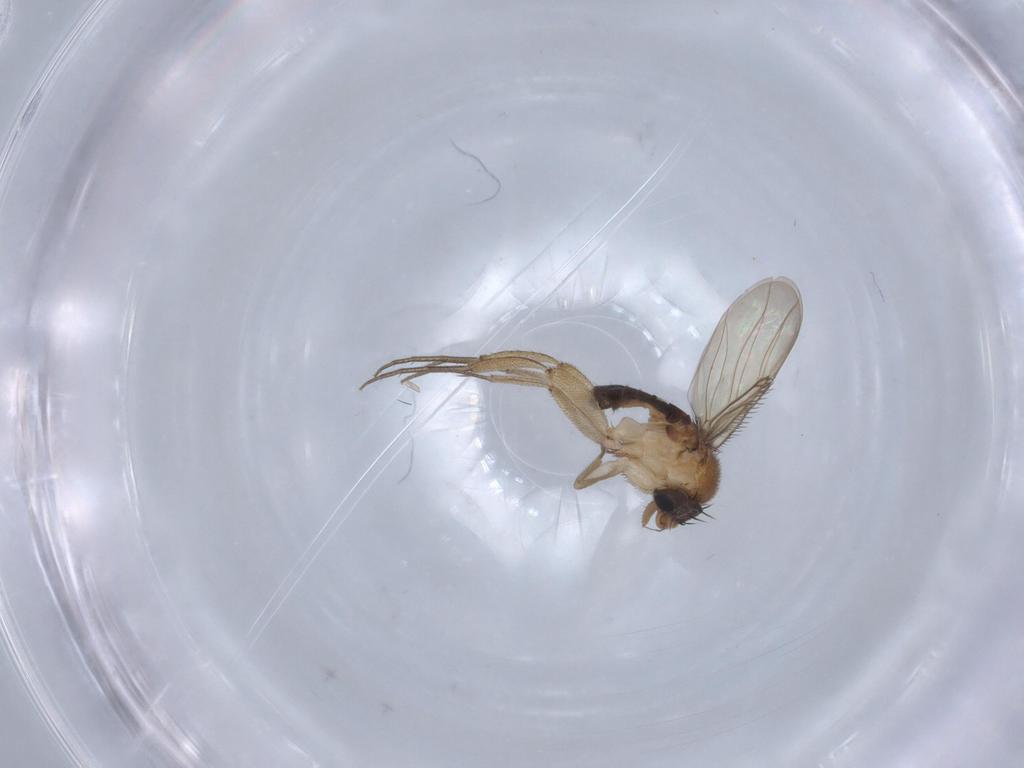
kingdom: Animalia
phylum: Arthropoda
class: Insecta
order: Diptera
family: Phoridae
